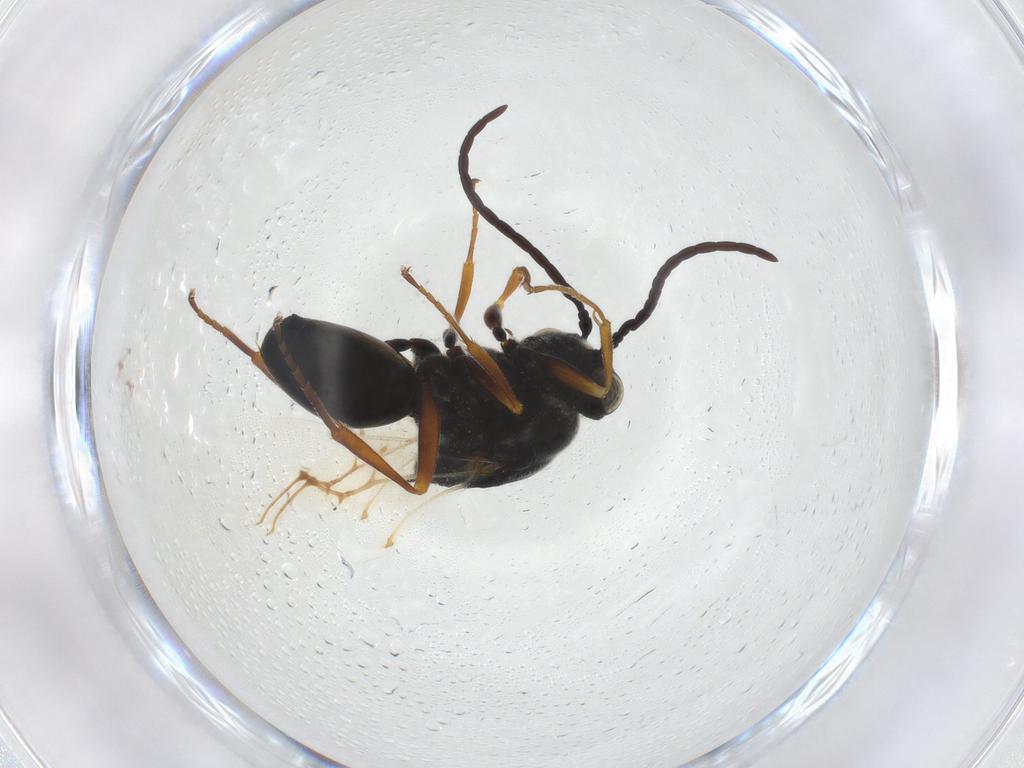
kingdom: Animalia
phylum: Arthropoda
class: Insecta
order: Hymenoptera
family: Figitidae
